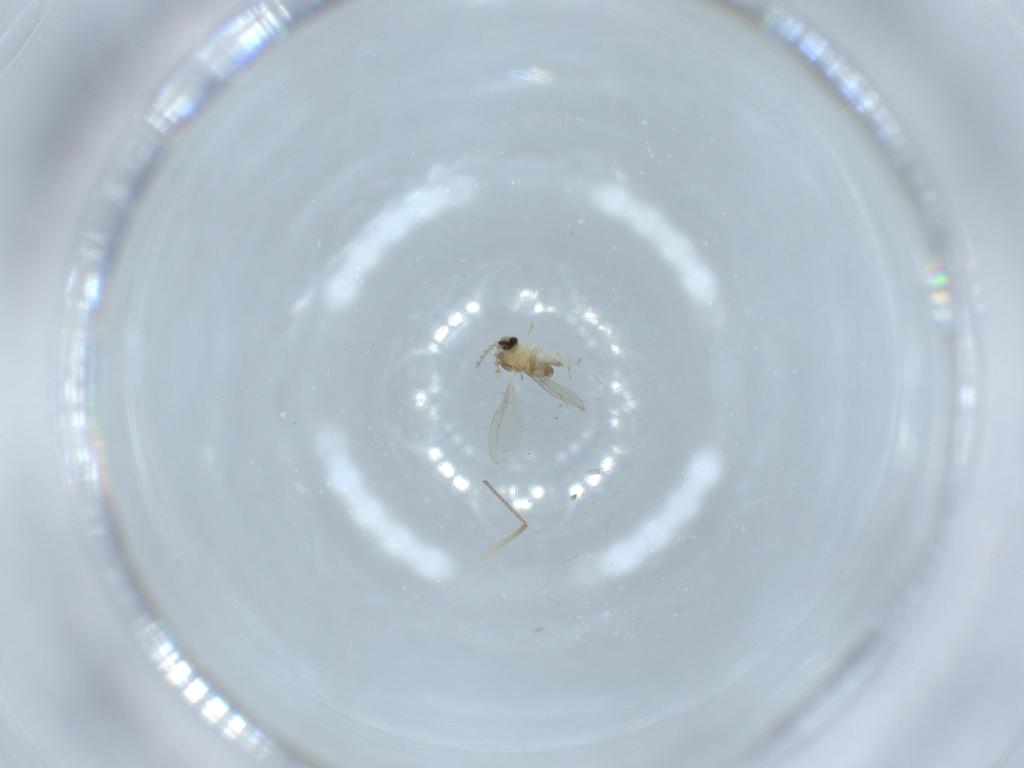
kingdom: Animalia
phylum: Arthropoda
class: Insecta
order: Diptera
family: Cecidomyiidae
